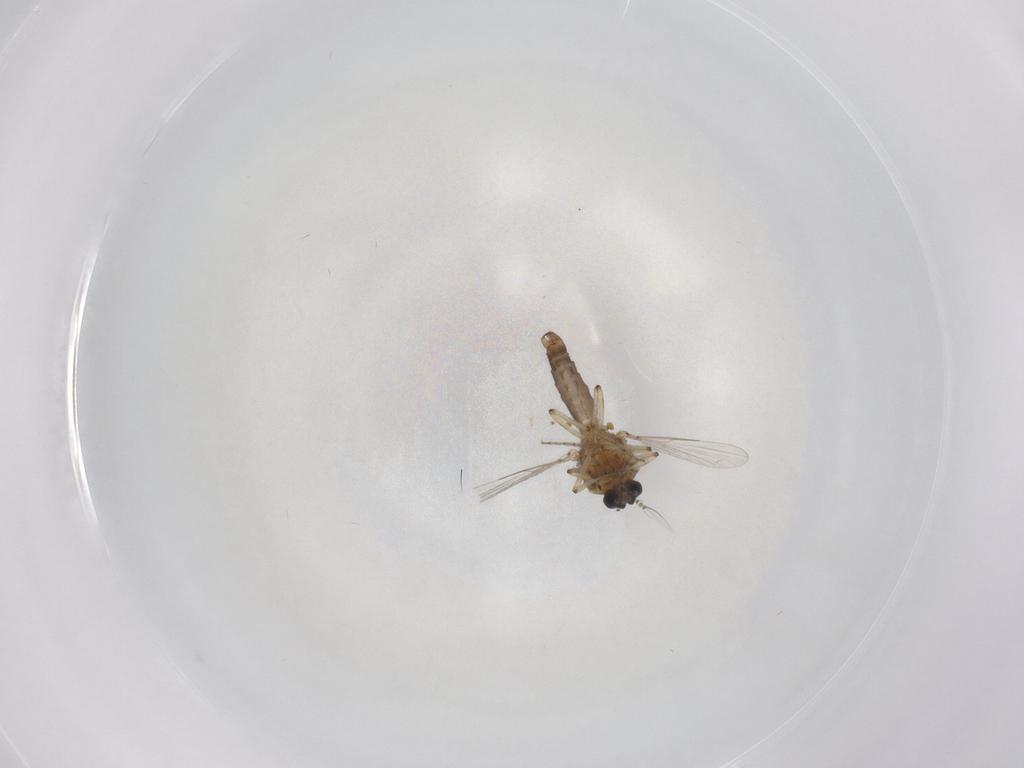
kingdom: Animalia
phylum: Arthropoda
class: Insecta
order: Diptera
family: Ceratopogonidae
